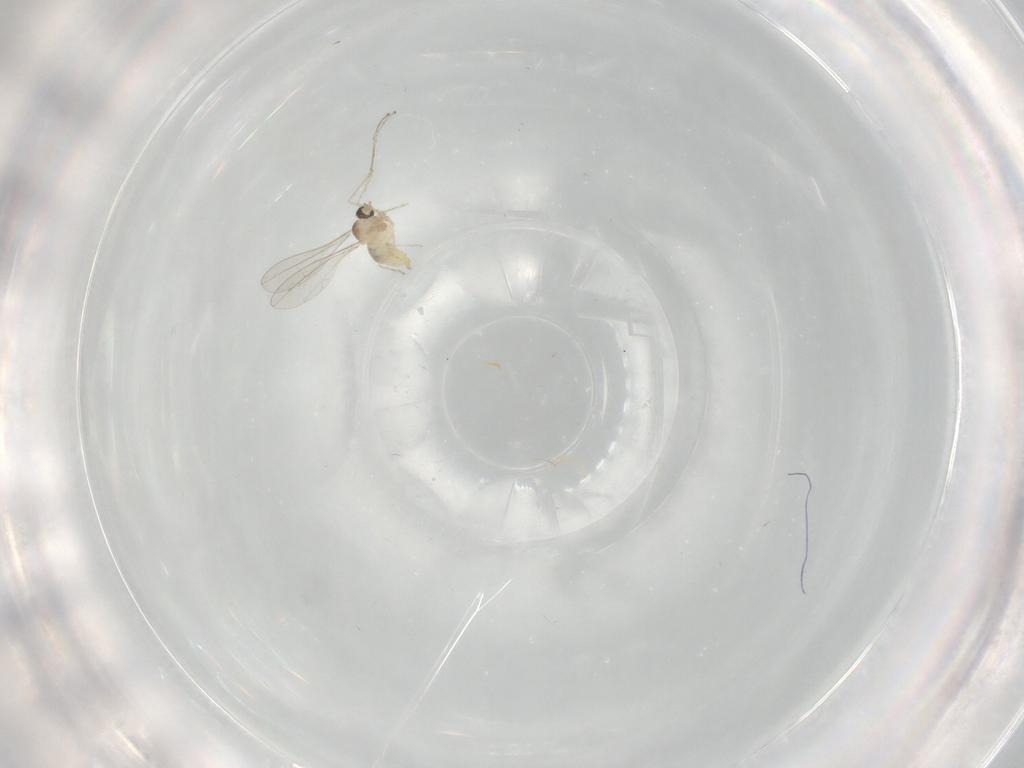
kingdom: Animalia
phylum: Arthropoda
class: Insecta
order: Diptera
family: Cecidomyiidae
